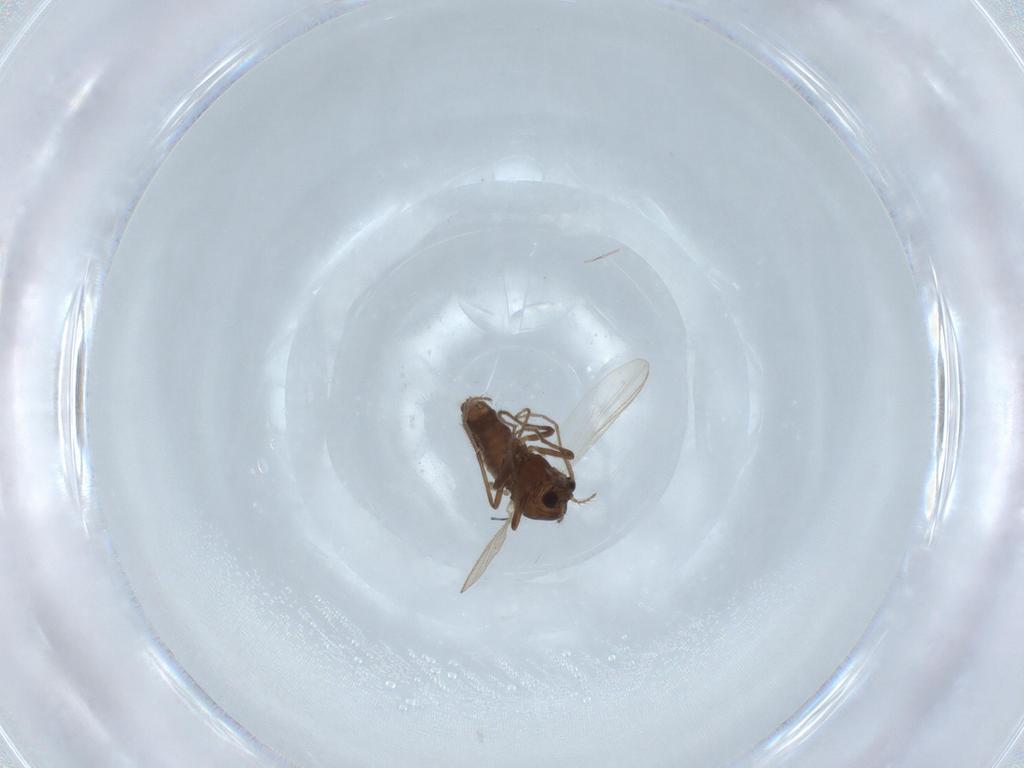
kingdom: Animalia
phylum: Arthropoda
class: Insecta
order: Diptera
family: Chironomidae
